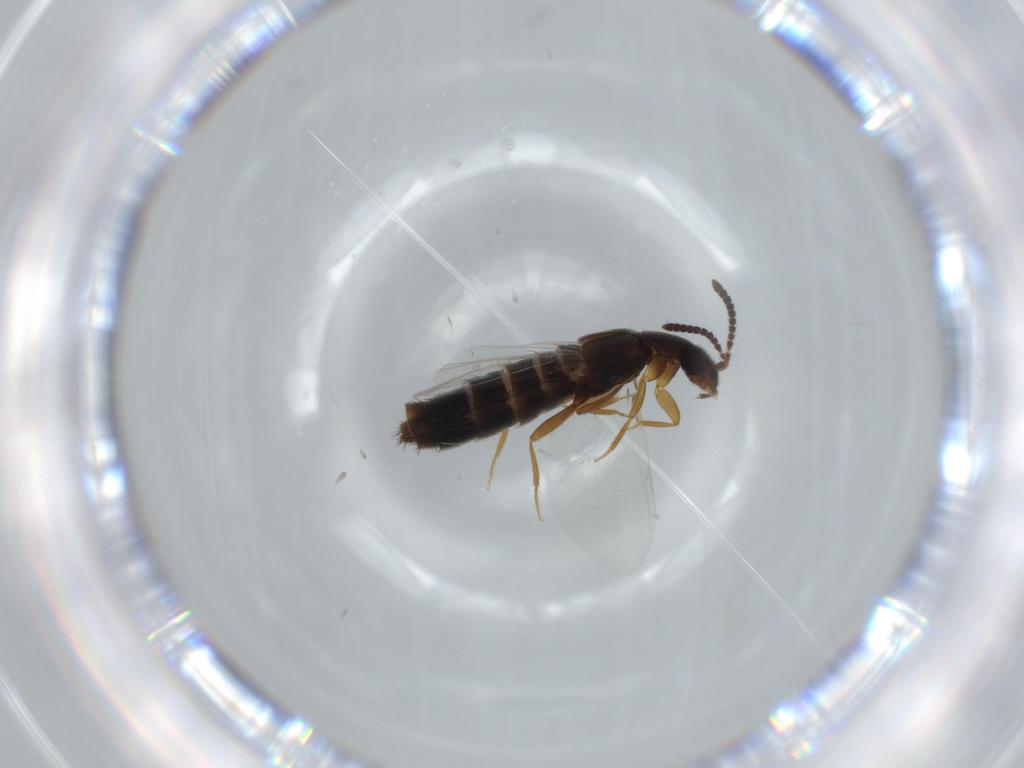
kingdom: Animalia
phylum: Arthropoda
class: Insecta
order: Coleoptera
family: Cantharidae
